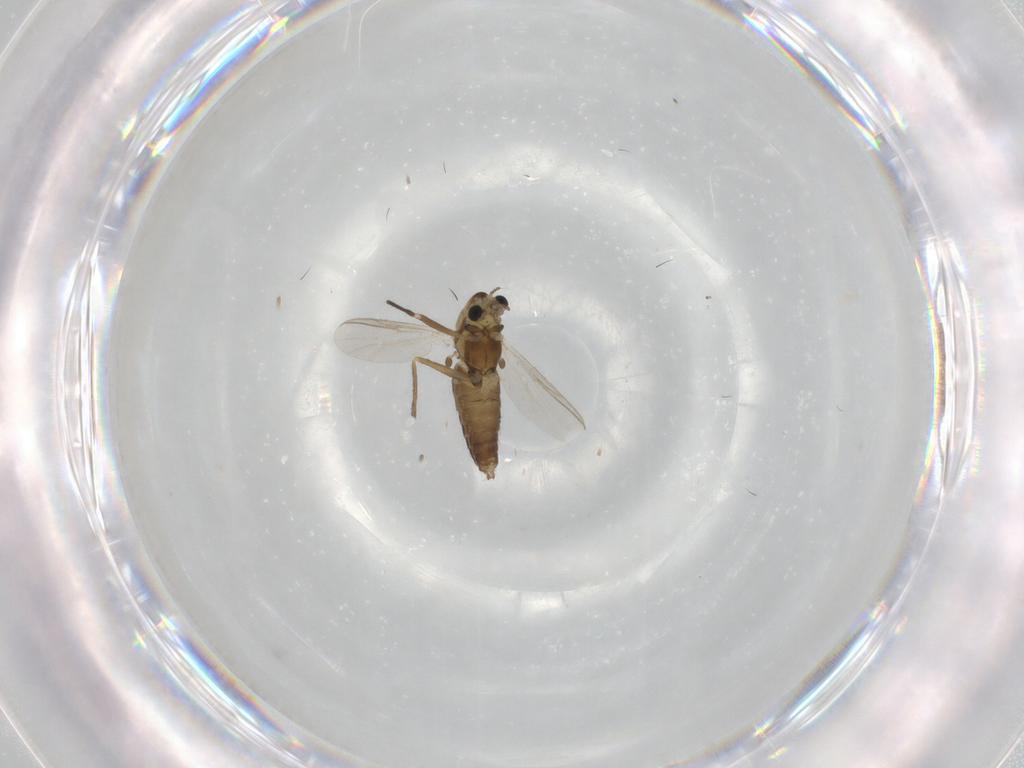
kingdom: Animalia
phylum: Arthropoda
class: Insecta
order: Diptera
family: Chironomidae
